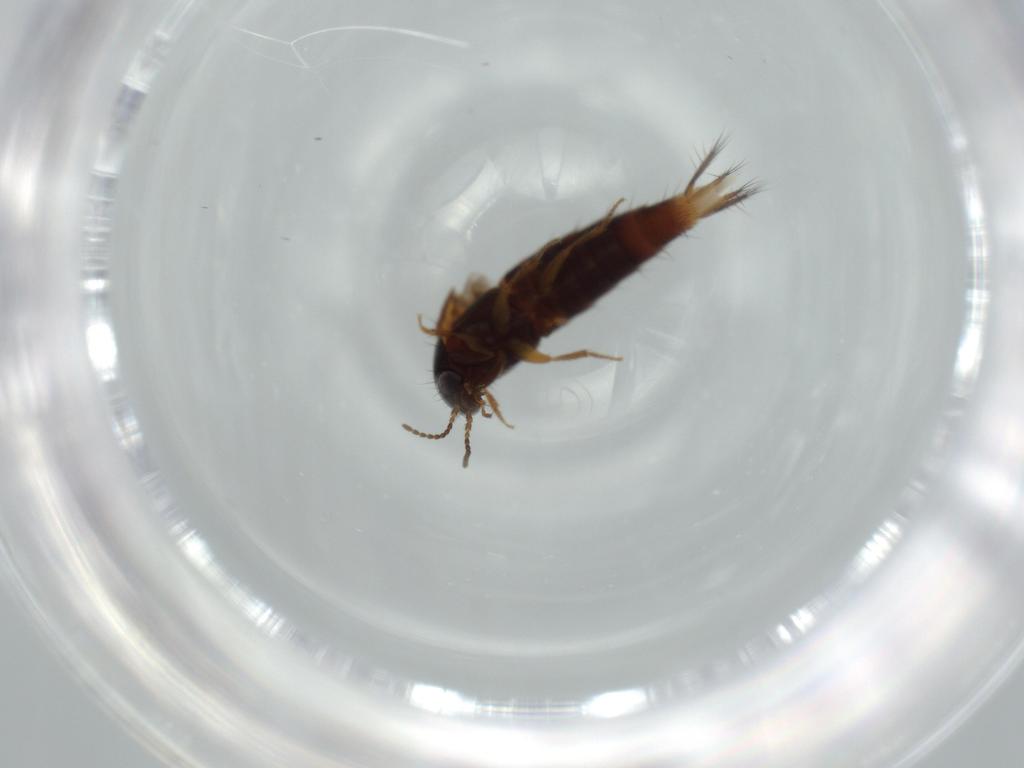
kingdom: Animalia
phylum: Arthropoda
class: Insecta
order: Coleoptera
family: Staphylinidae
